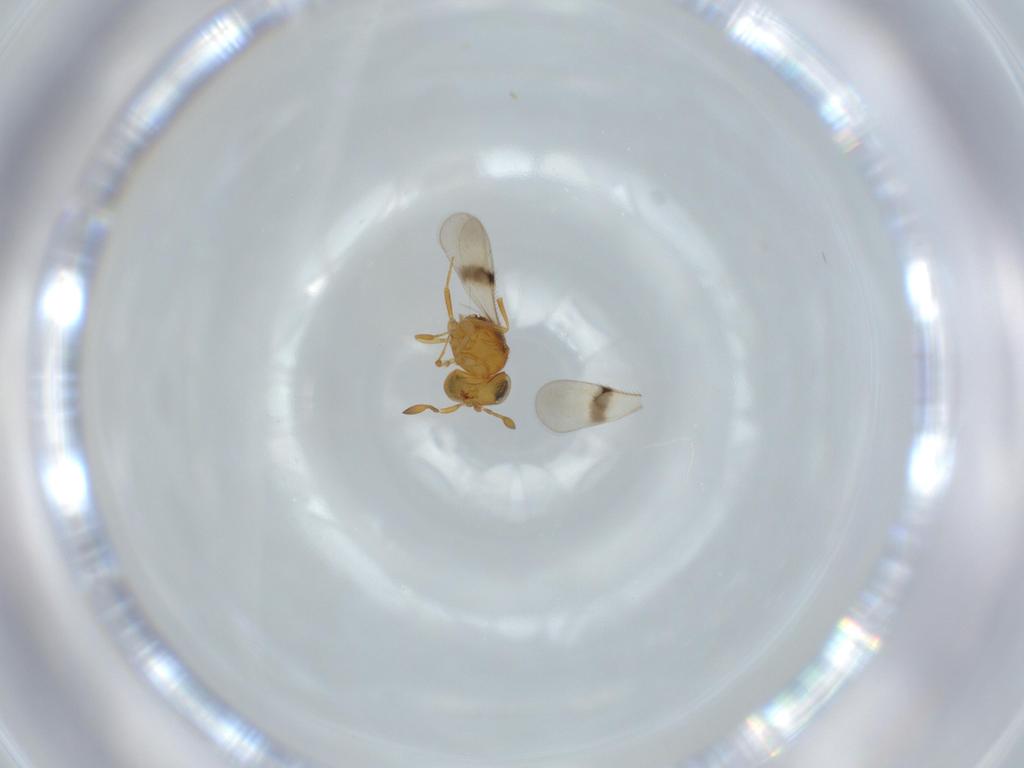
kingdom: Animalia
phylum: Arthropoda
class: Insecta
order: Hymenoptera
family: Scelionidae
